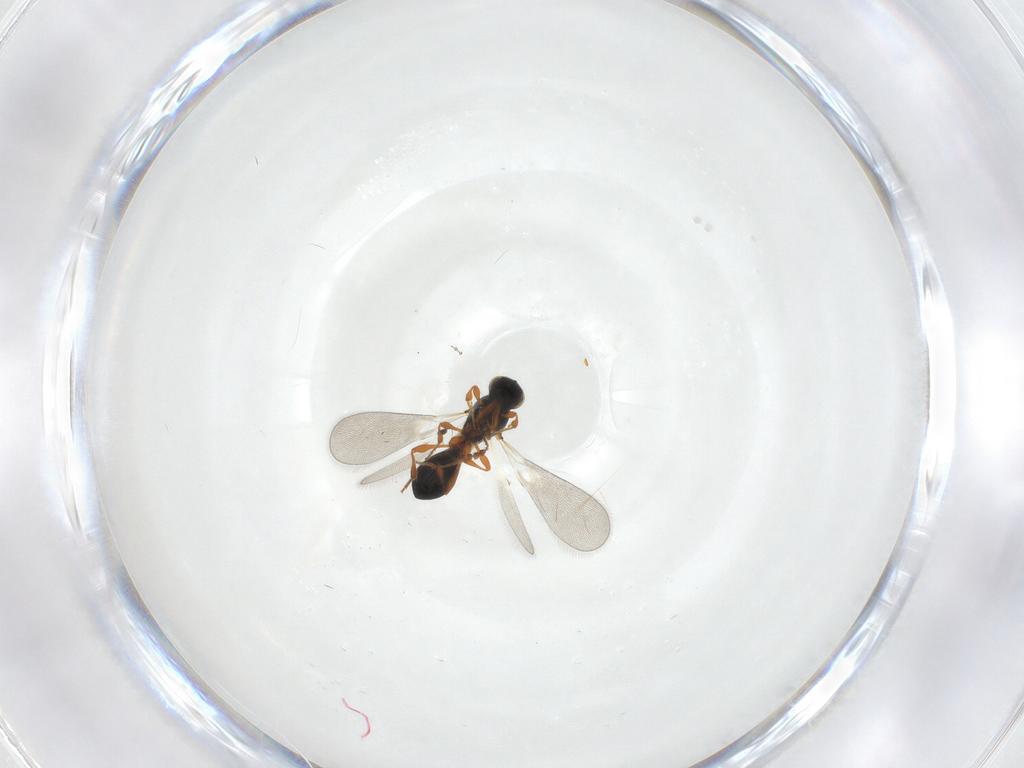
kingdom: Animalia
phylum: Arthropoda
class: Insecta
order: Hymenoptera
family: Platygastridae
